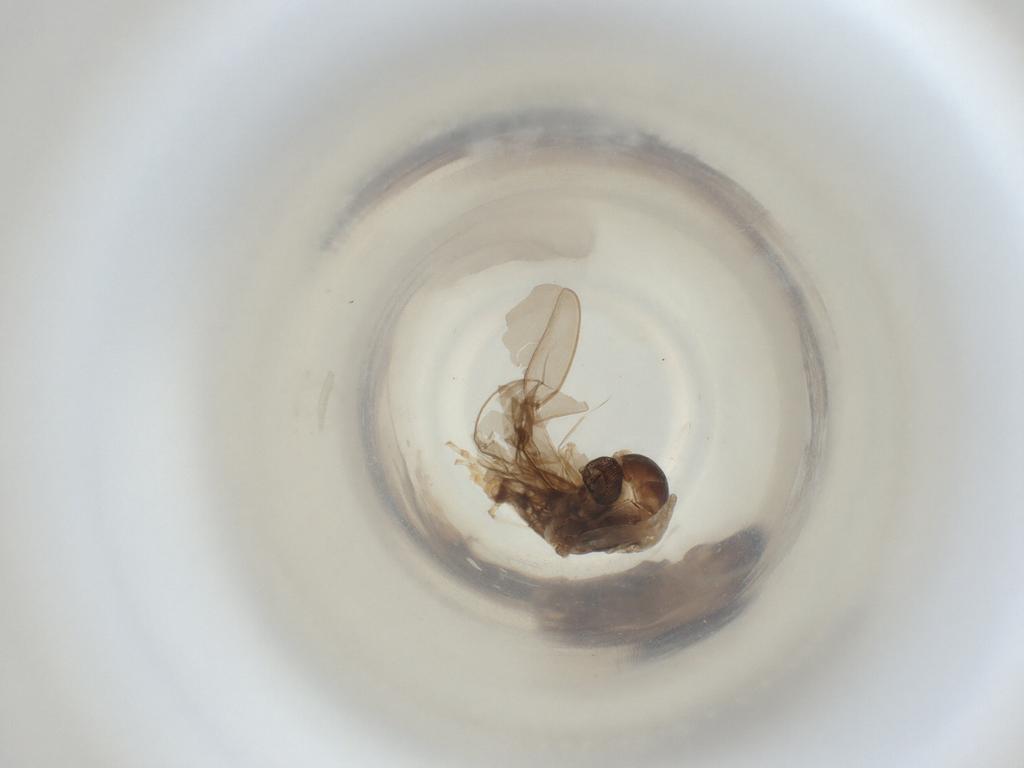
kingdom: Animalia
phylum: Arthropoda
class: Insecta
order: Diptera
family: Cecidomyiidae
